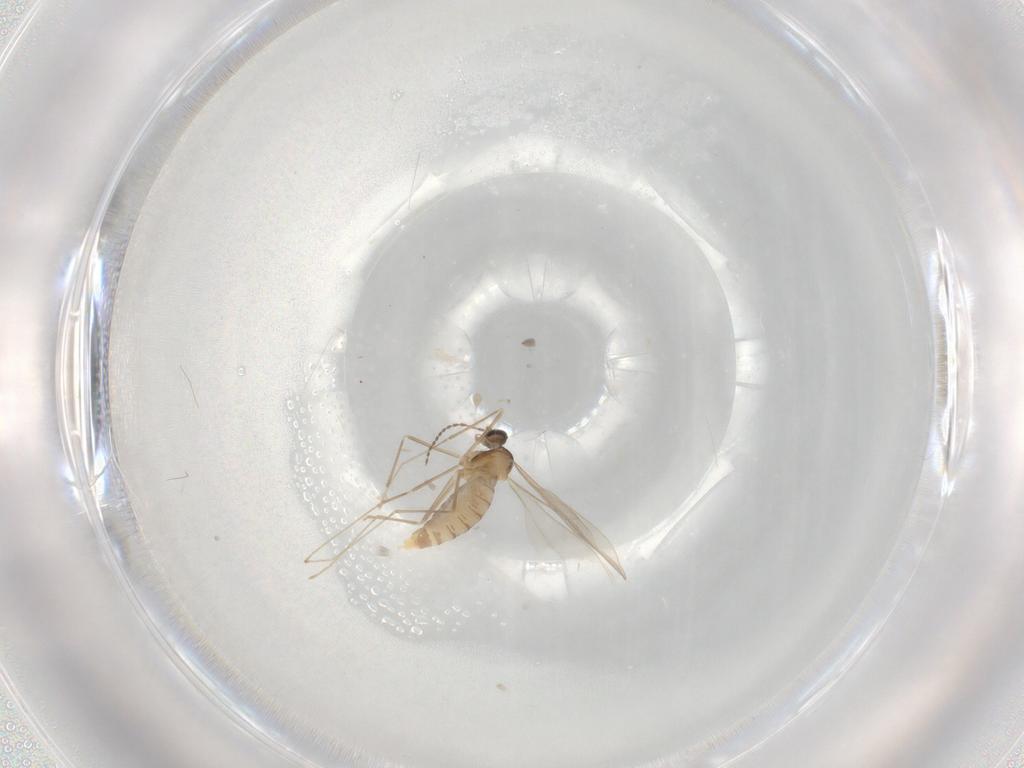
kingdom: Animalia
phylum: Arthropoda
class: Insecta
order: Diptera
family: Cecidomyiidae
